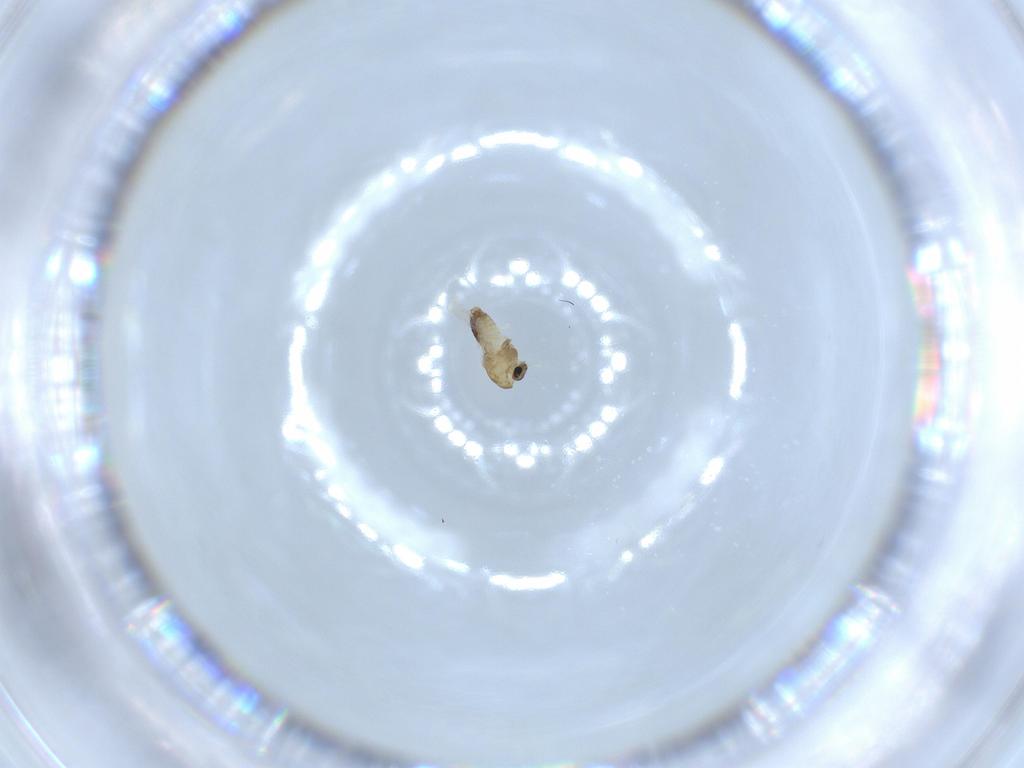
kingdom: Animalia
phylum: Arthropoda
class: Insecta
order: Diptera
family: Chironomidae
